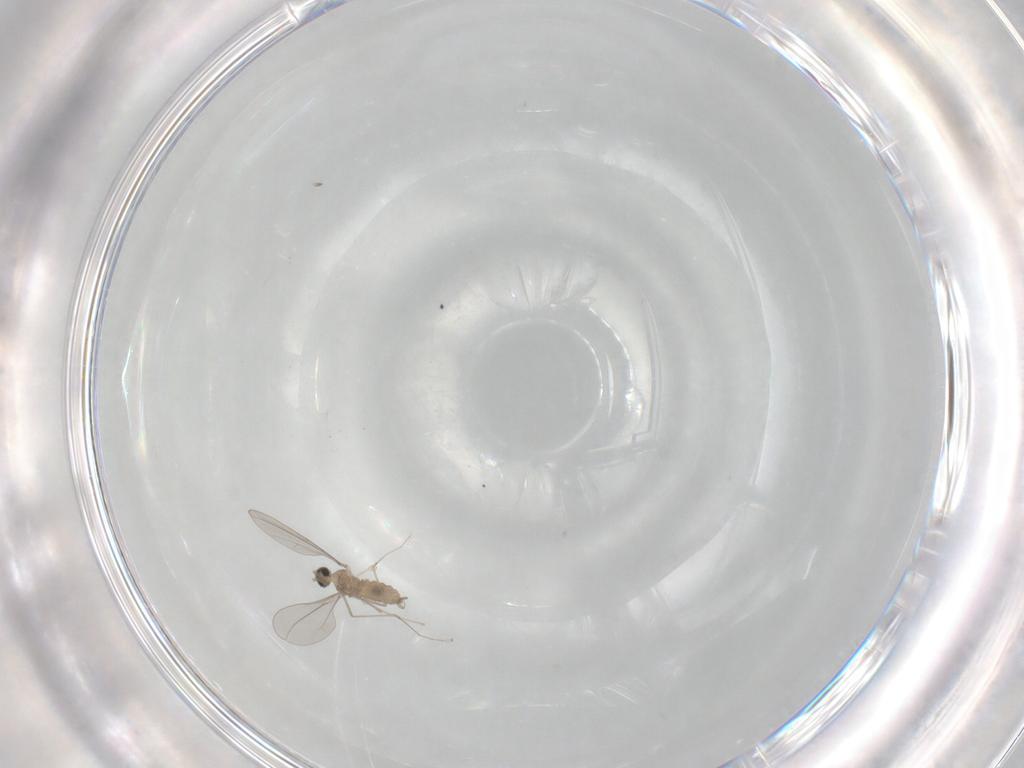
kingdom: Animalia
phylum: Arthropoda
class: Insecta
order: Diptera
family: Cecidomyiidae
